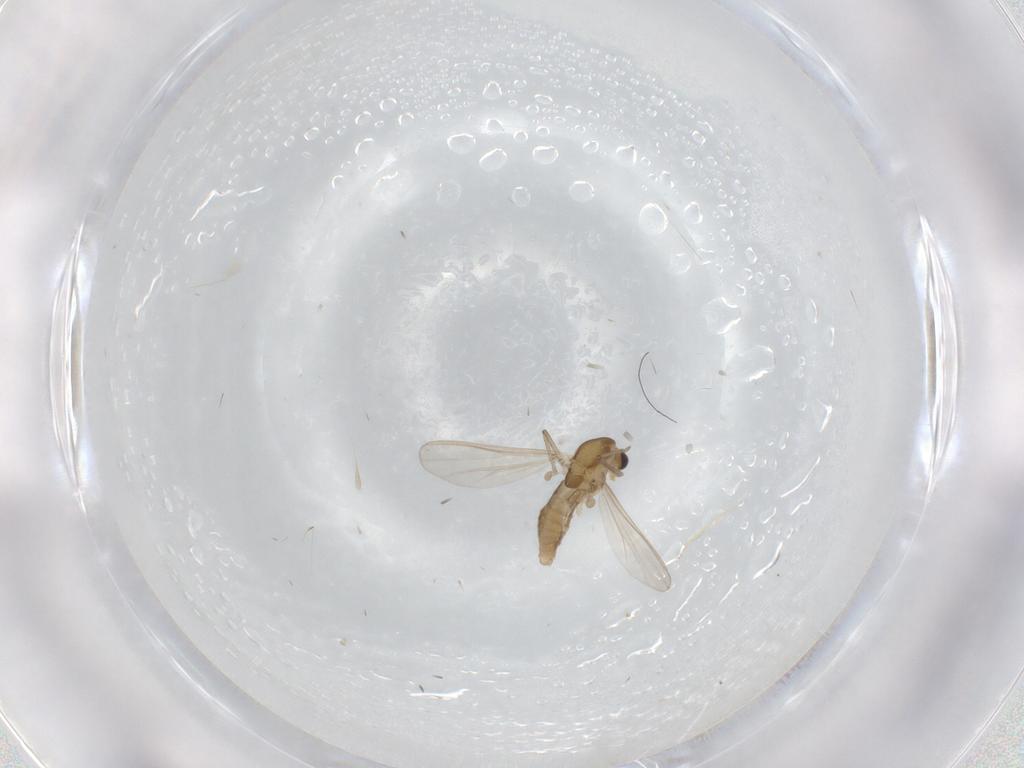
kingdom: Animalia
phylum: Arthropoda
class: Insecta
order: Diptera
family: Chironomidae
